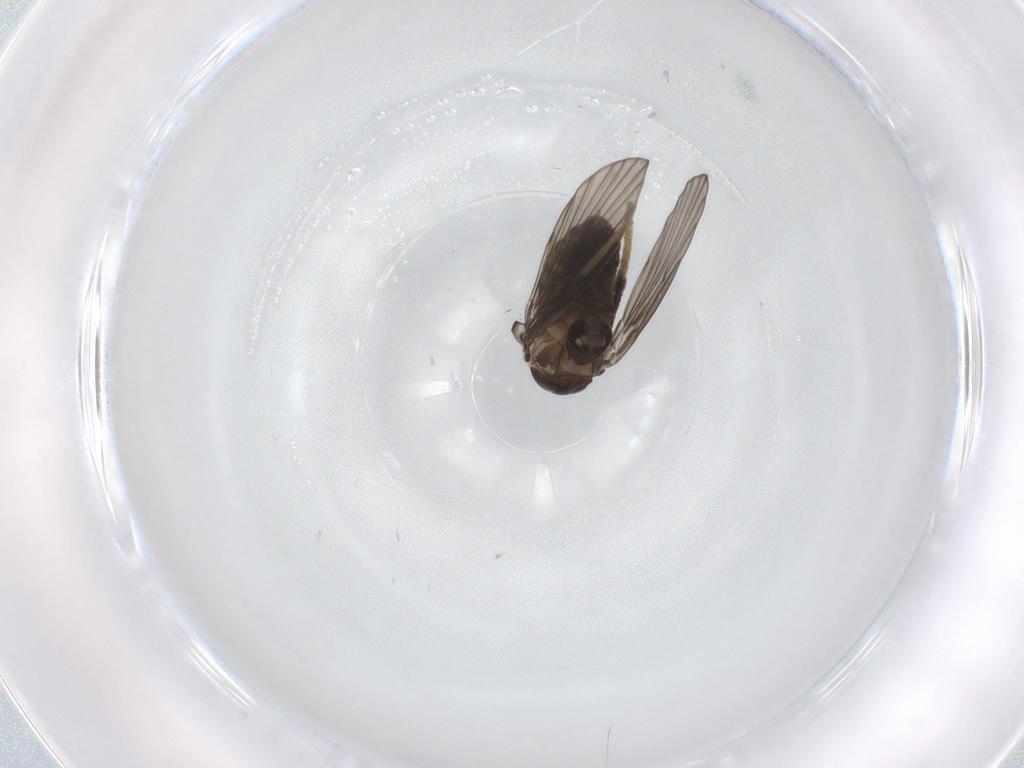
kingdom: Animalia
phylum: Arthropoda
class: Insecta
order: Diptera
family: Psychodidae
